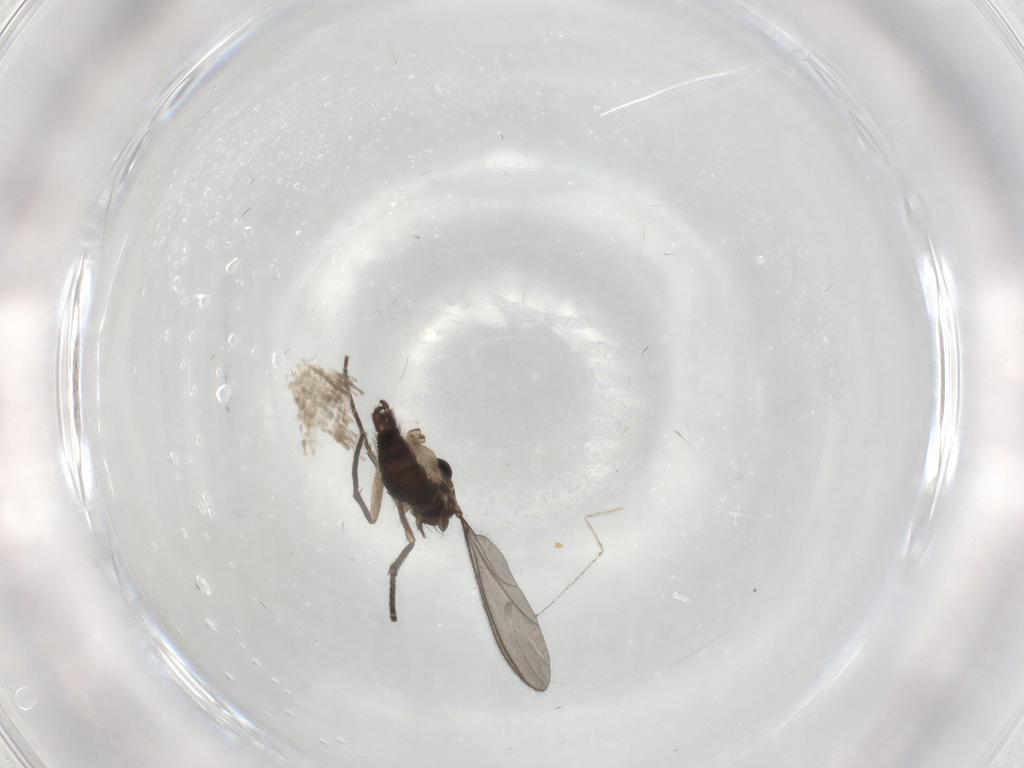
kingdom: Animalia
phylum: Arthropoda
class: Insecta
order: Diptera
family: Sciaridae
